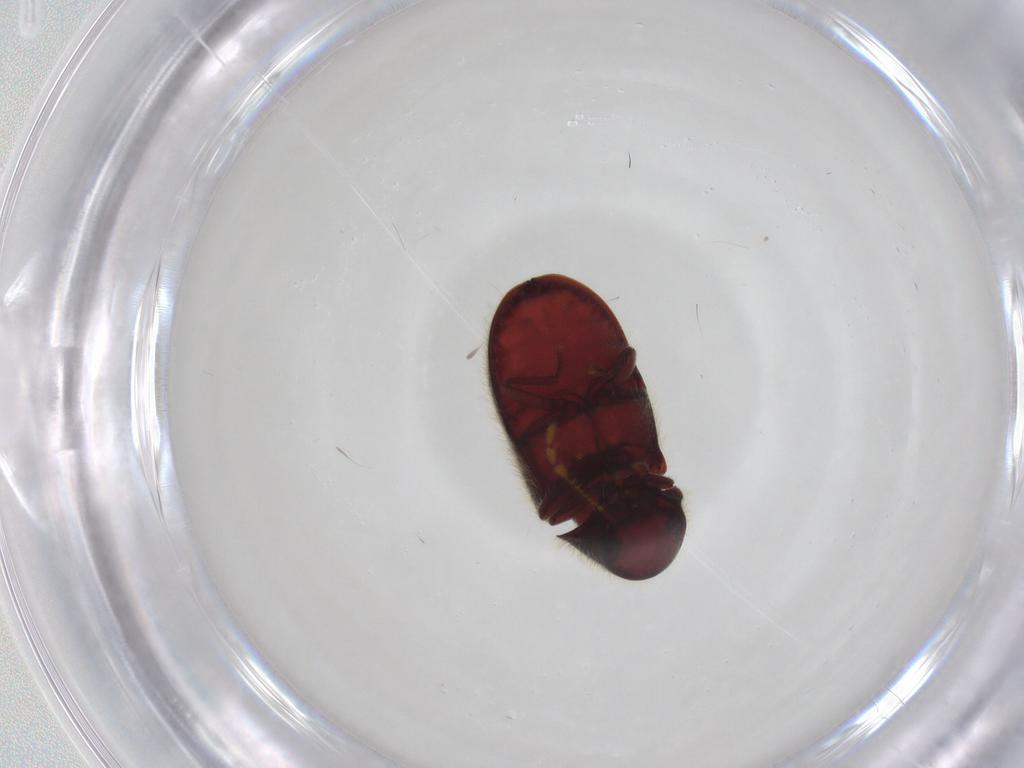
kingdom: Animalia
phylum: Arthropoda
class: Insecta
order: Coleoptera
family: Ptinidae
